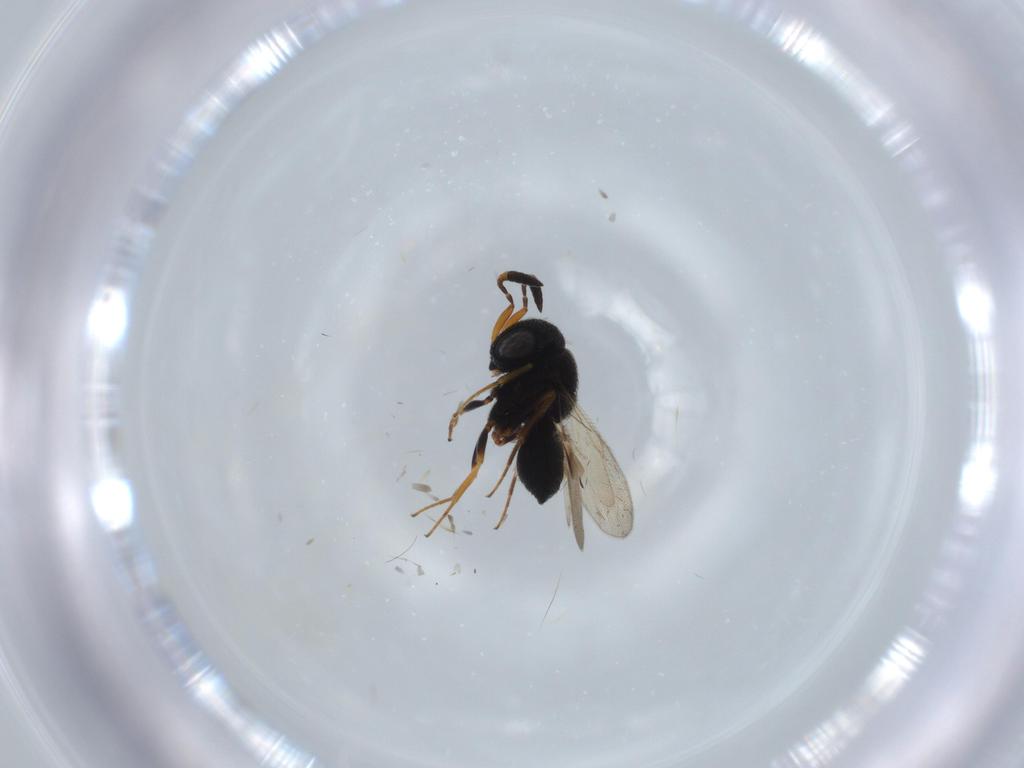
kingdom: Animalia
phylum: Arthropoda
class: Insecta
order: Hymenoptera
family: Scelionidae
